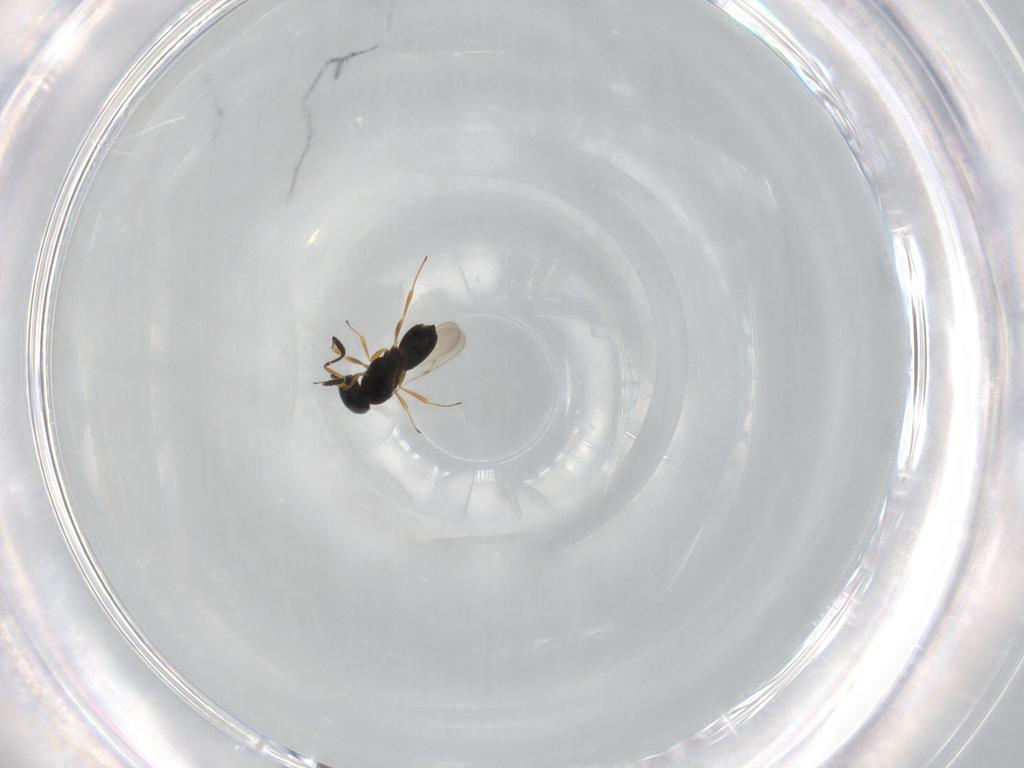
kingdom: Animalia
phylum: Arthropoda
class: Insecta
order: Hymenoptera
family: Scelionidae
